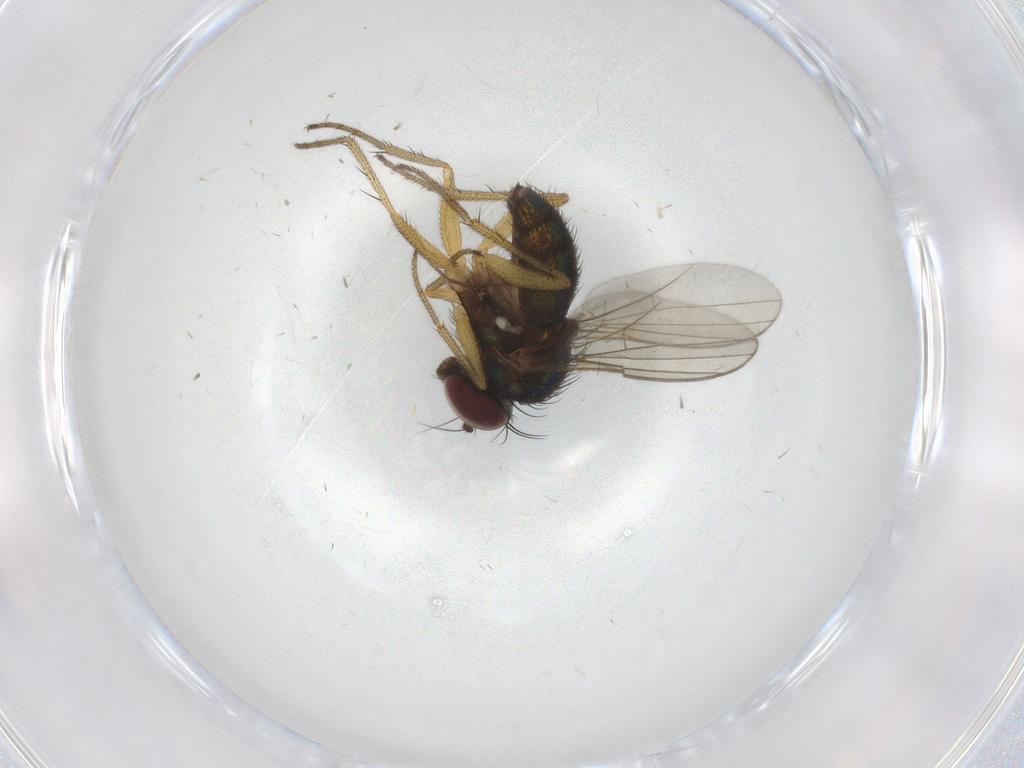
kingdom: Animalia
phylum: Arthropoda
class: Insecta
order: Diptera
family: Dolichopodidae
